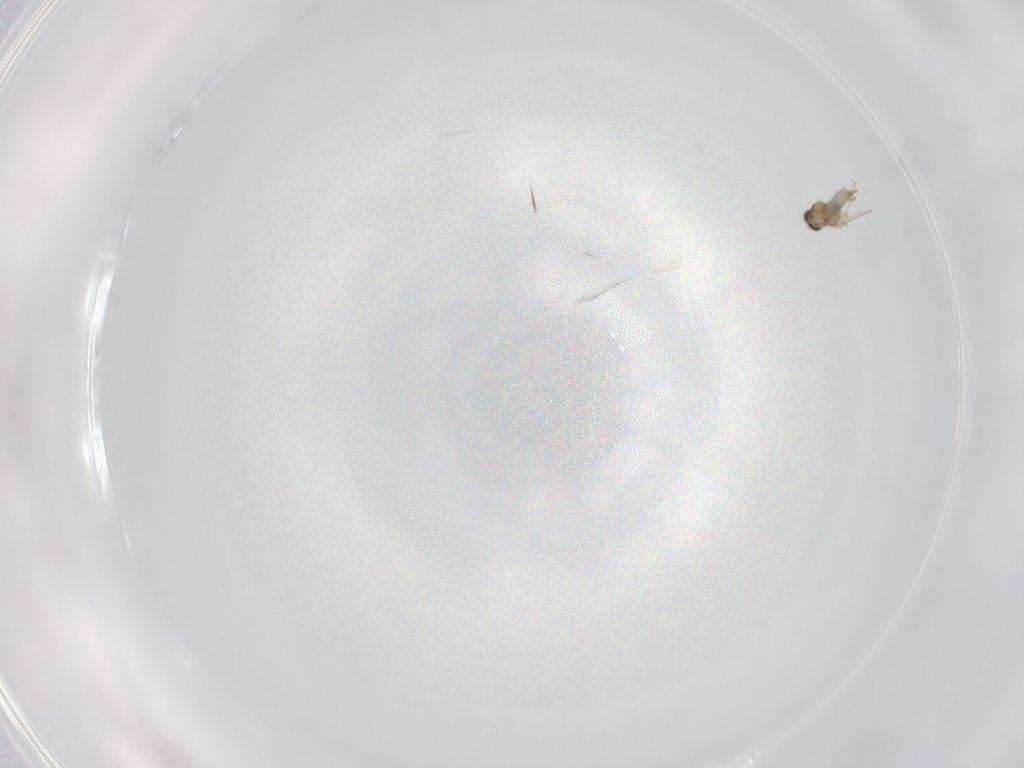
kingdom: Animalia
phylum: Arthropoda
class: Insecta
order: Diptera
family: Cecidomyiidae
